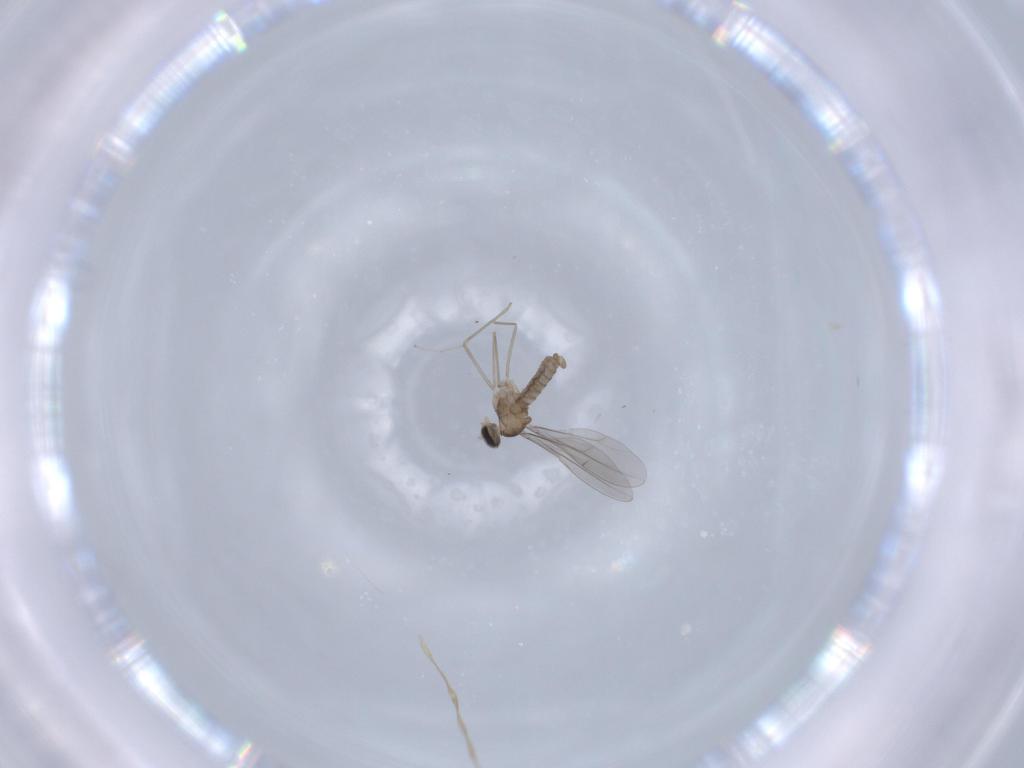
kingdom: Animalia
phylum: Arthropoda
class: Insecta
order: Diptera
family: Cecidomyiidae
